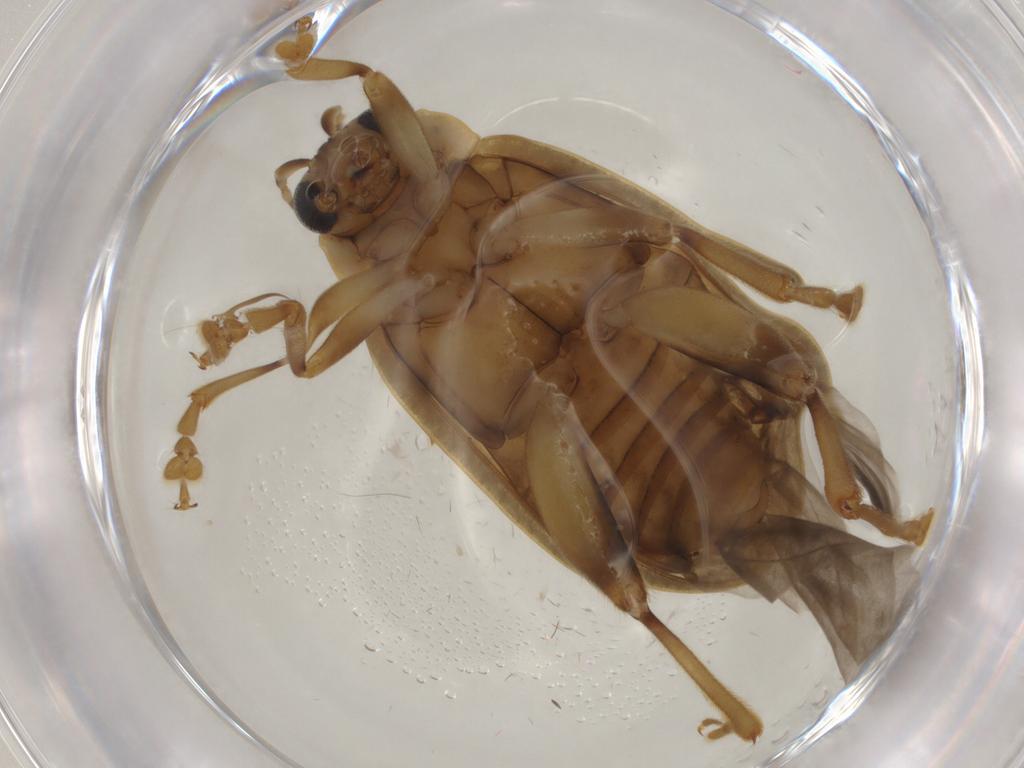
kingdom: Animalia
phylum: Arthropoda
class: Insecta
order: Coleoptera
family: Chrysomelidae
